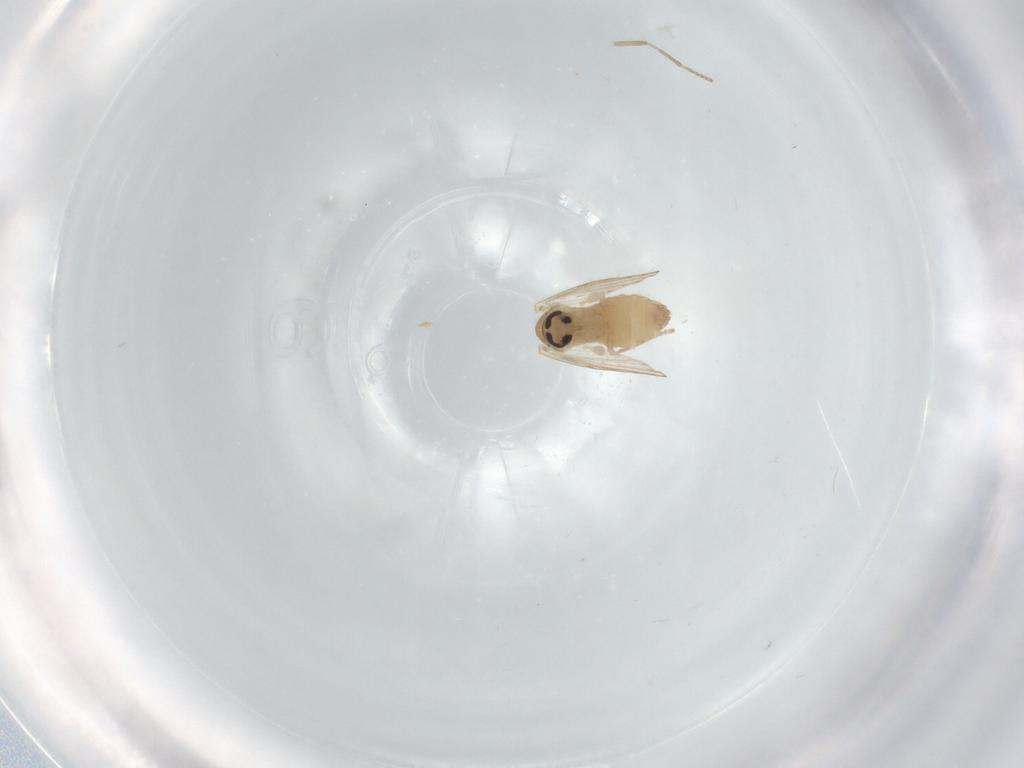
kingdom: Animalia
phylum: Arthropoda
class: Insecta
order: Diptera
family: Psychodidae
